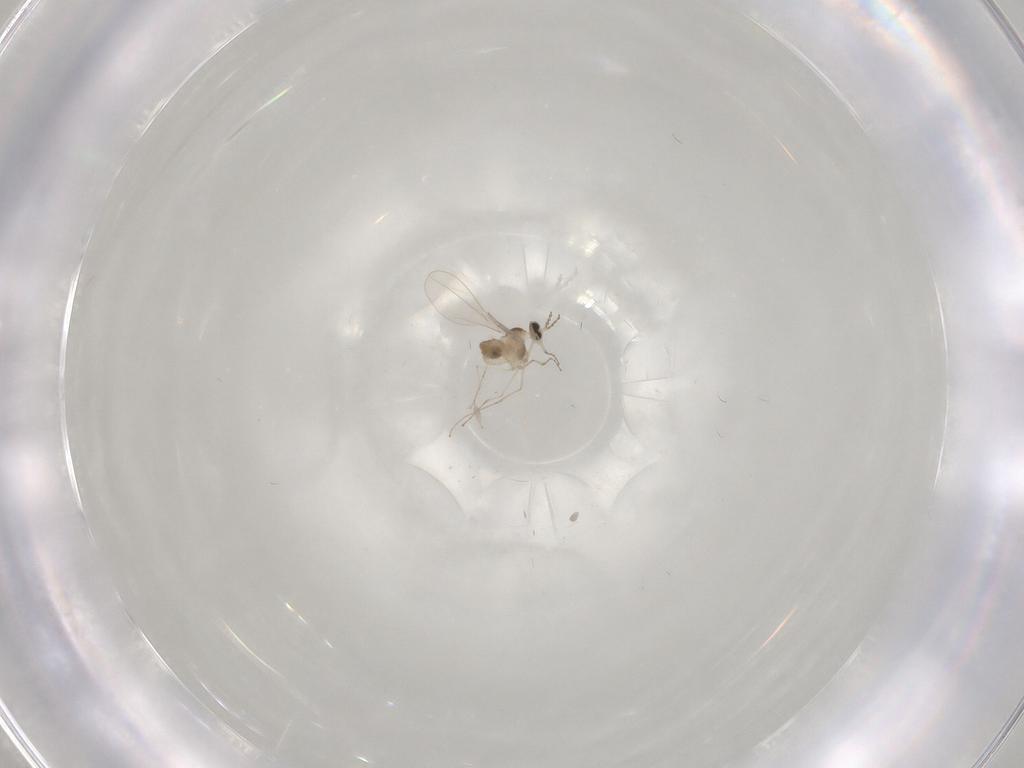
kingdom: Animalia
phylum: Arthropoda
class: Insecta
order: Diptera
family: Cecidomyiidae
